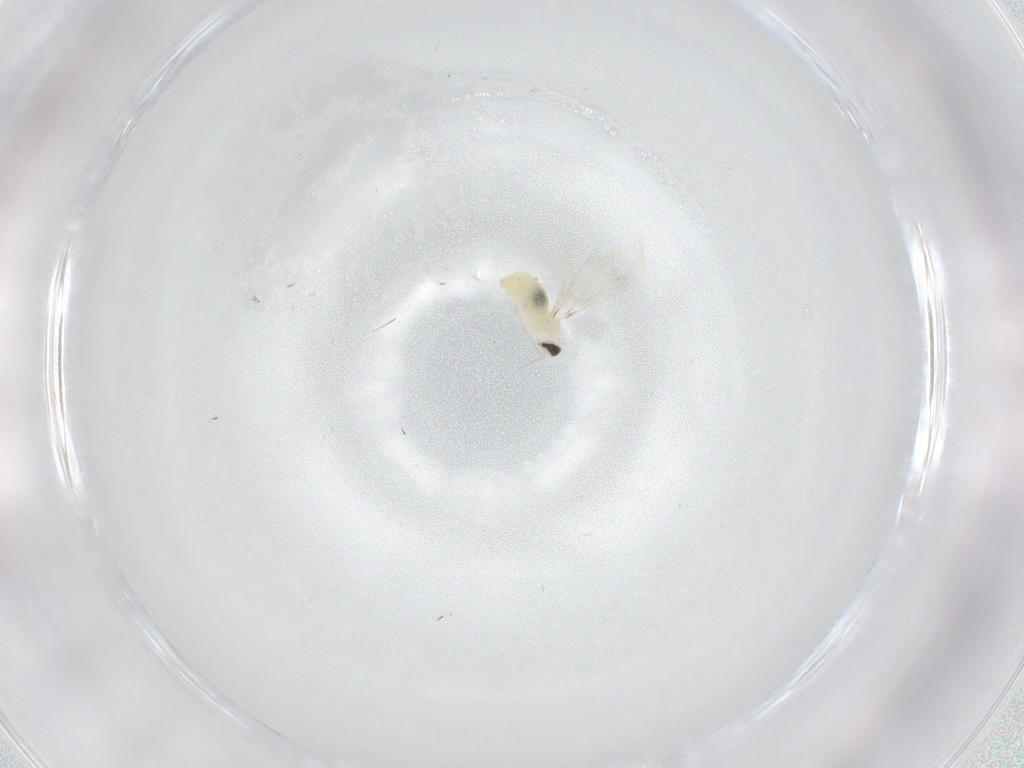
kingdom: Animalia
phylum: Arthropoda
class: Insecta
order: Diptera
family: Cecidomyiidae
